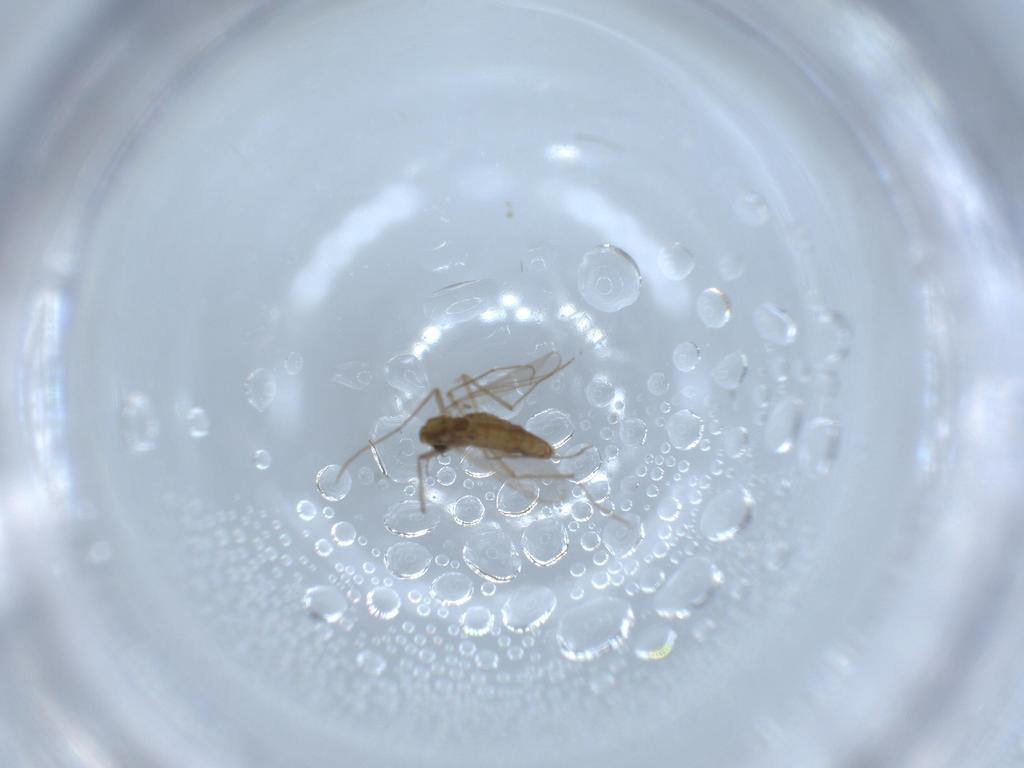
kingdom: Animalia
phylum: Arthropoda
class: Insecta
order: Diptera
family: Chironomidae
